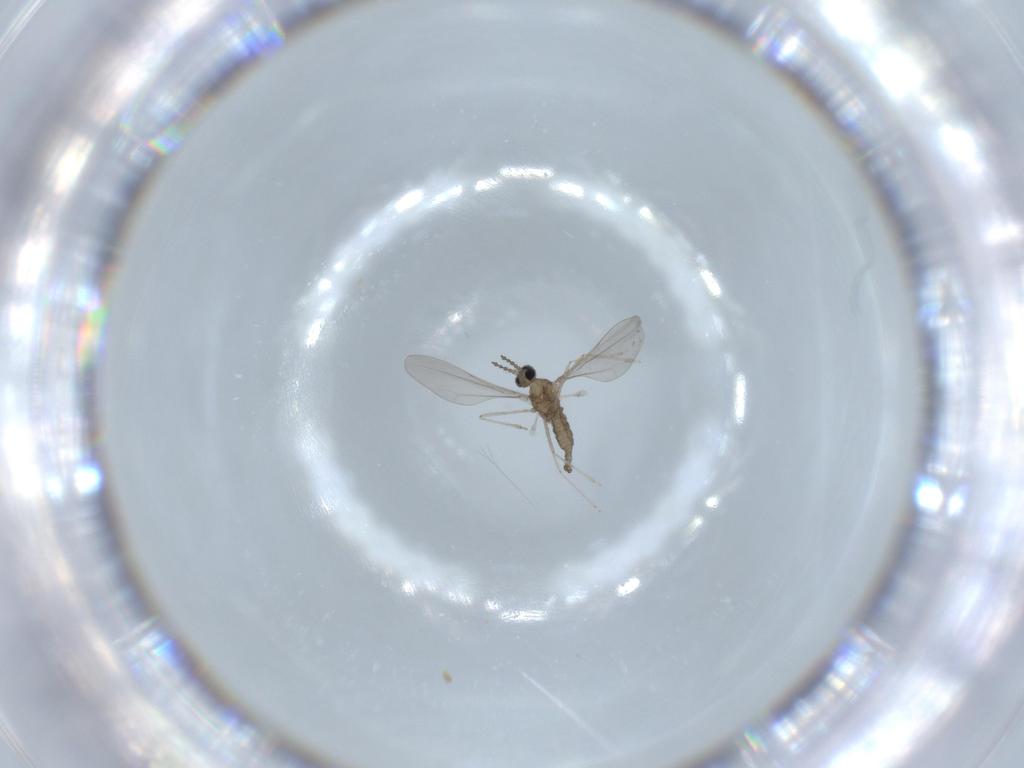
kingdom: Animalia
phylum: Arthropoda
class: Insecta
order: Diptera
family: Cecidomyiidae
